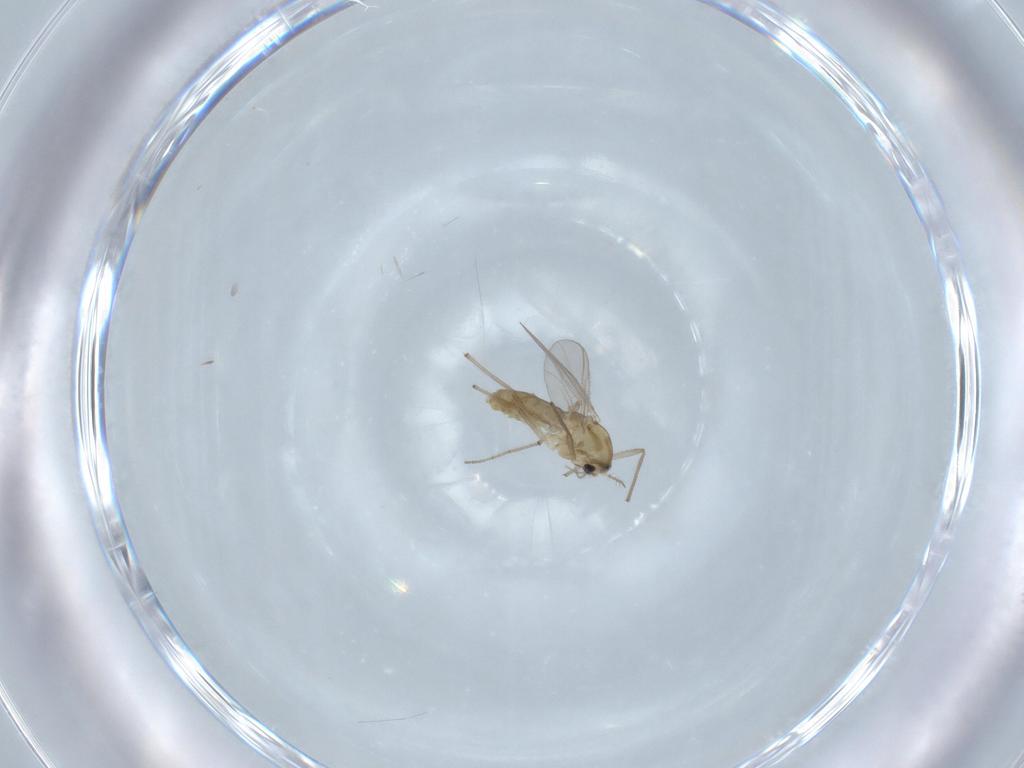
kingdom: Animalia
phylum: Arthropoda
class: Insecta
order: Diptera
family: Chironomidae
